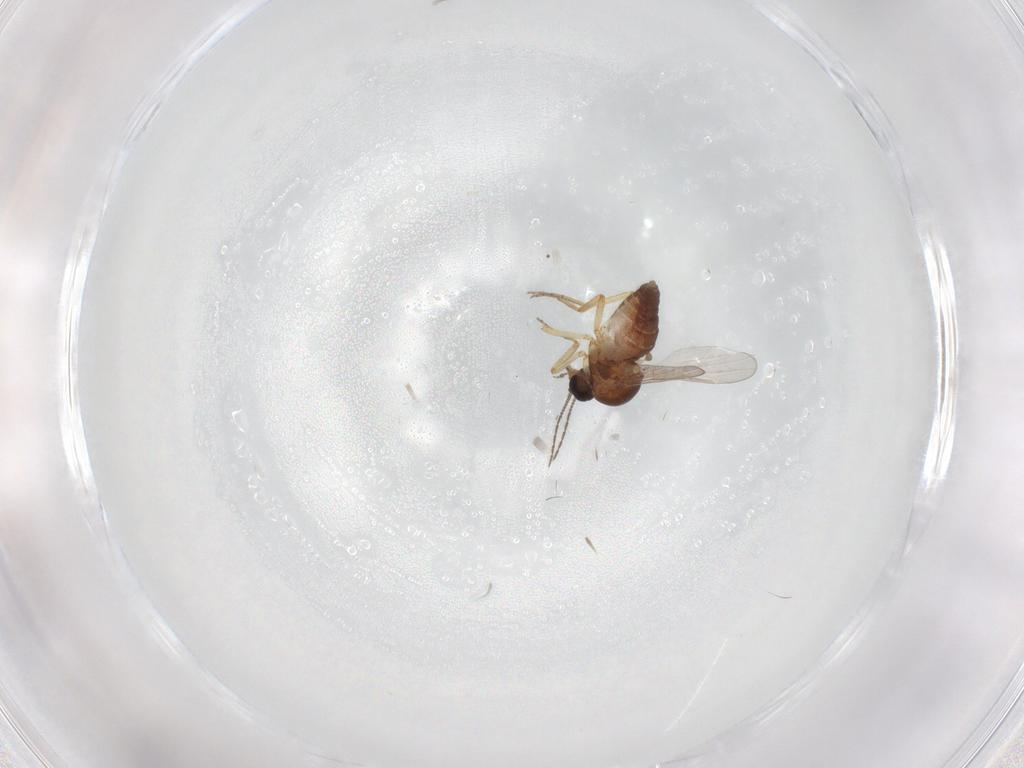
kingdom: Animalia
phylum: Arthropoda
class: Insecta
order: Diptera
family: Ceratopogonidae
